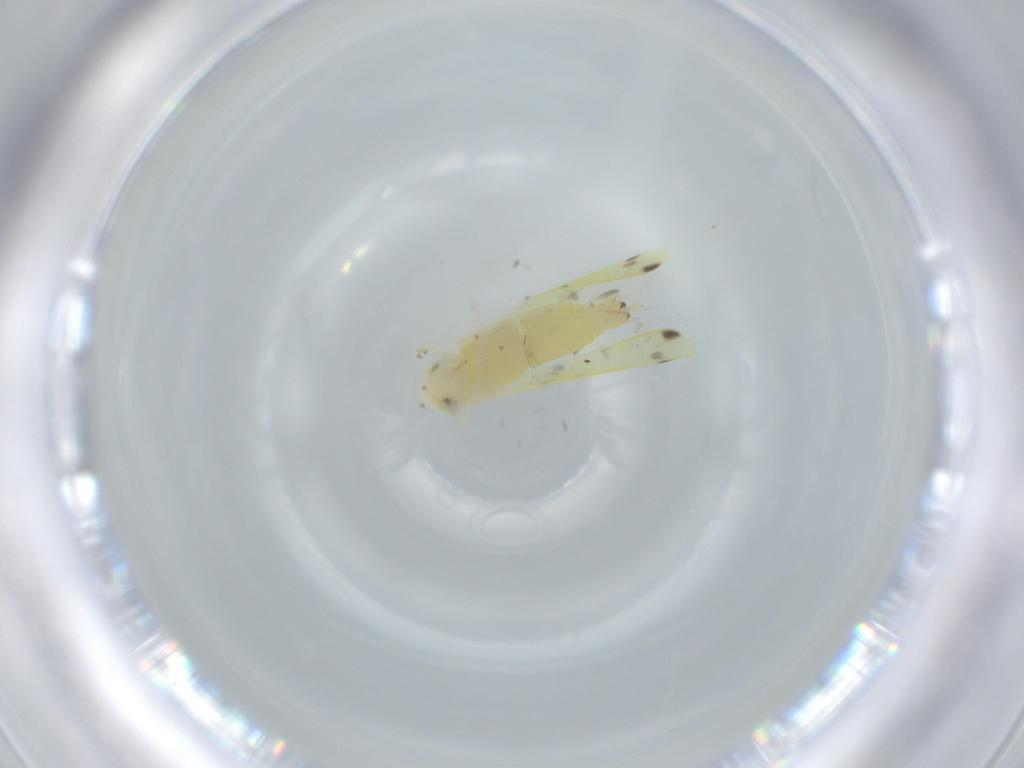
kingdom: Animalia
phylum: Arthropoda
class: Insecta
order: Hemiptera
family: Cicadellidae
